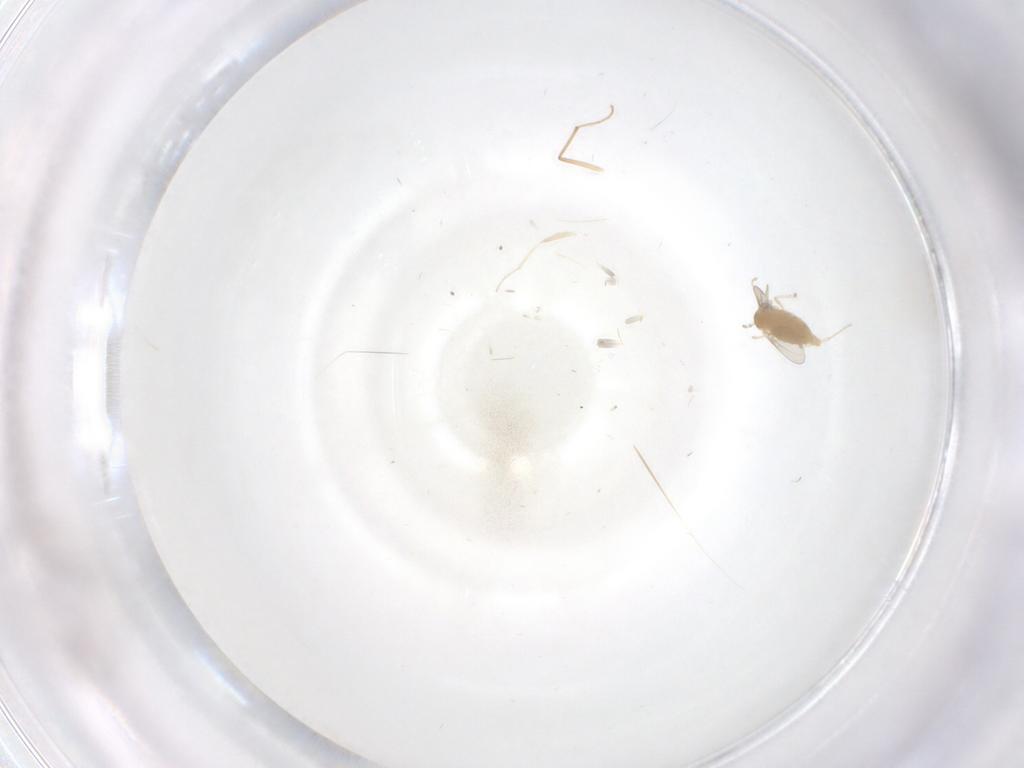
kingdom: Animalia
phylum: Arthropoda
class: Insecta
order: Diptera
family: Cecidomyiidae
